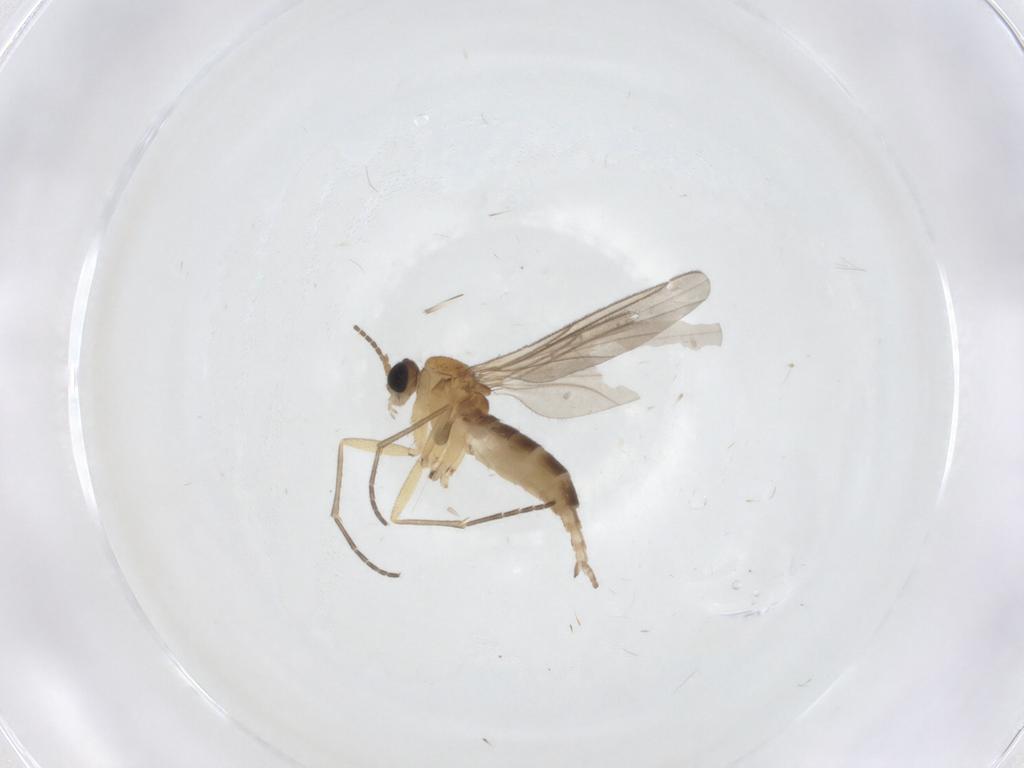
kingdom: Animalia
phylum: Arthropoda
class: Insecta
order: Diptera
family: Sciaridae
